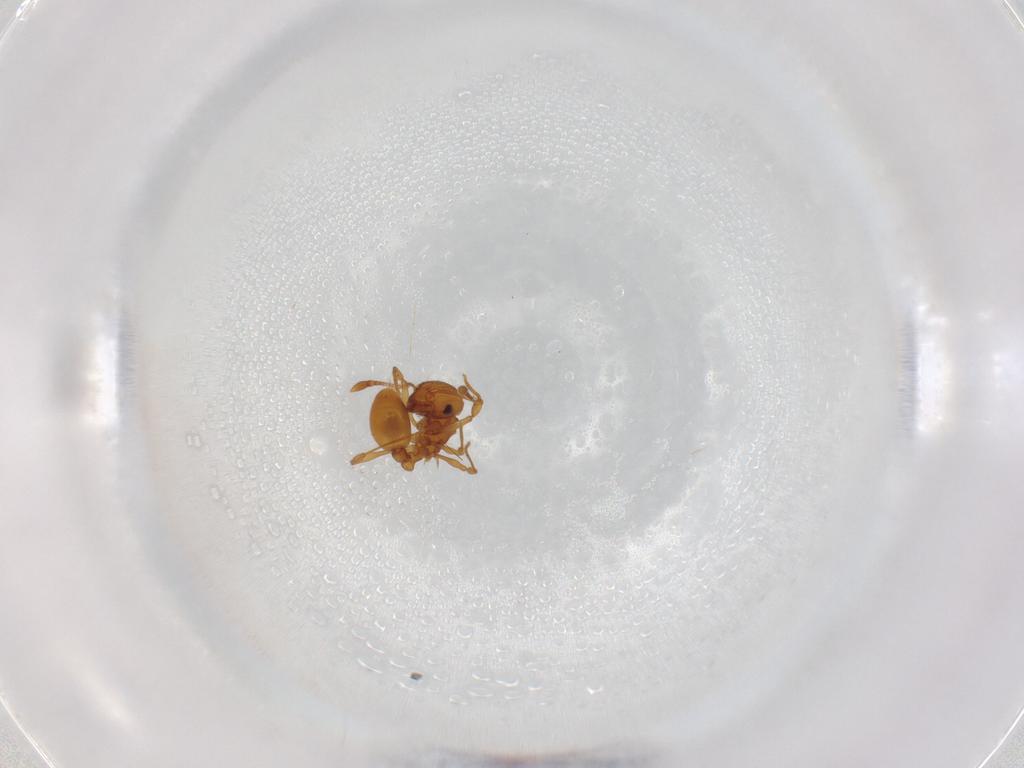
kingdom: Animalia
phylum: Arthropoda
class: Insecta
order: Hymenoptera
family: Formicidae
